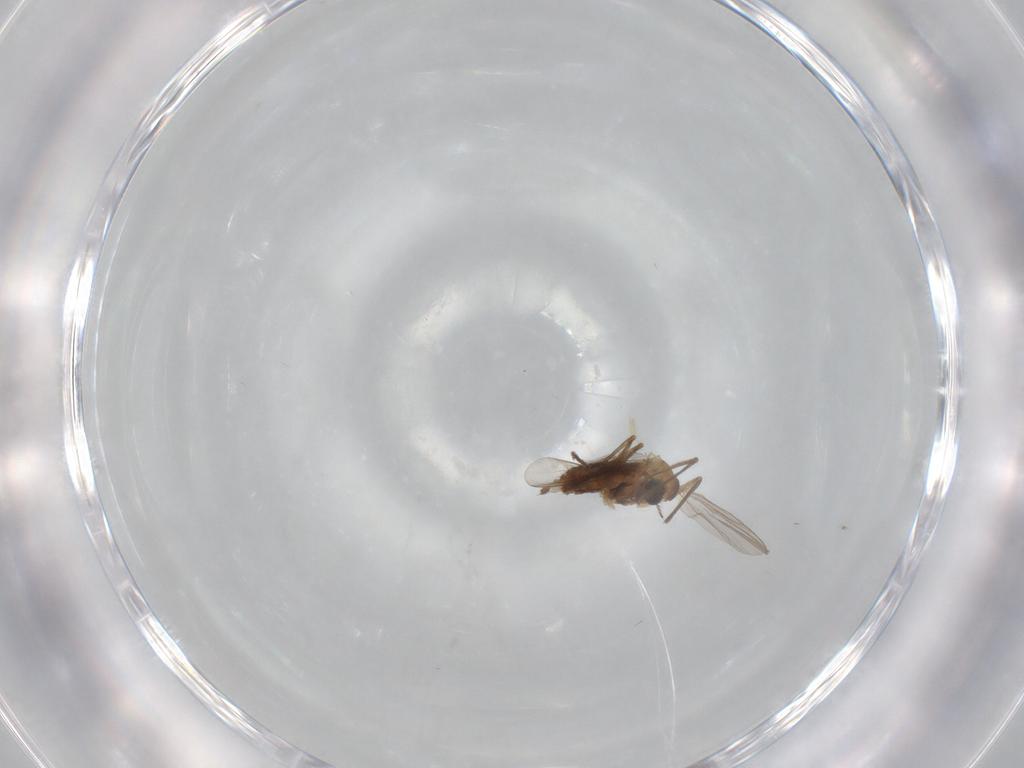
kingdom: Animalia
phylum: Arthropoda
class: Insecta
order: Diptera
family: Chironomidae
